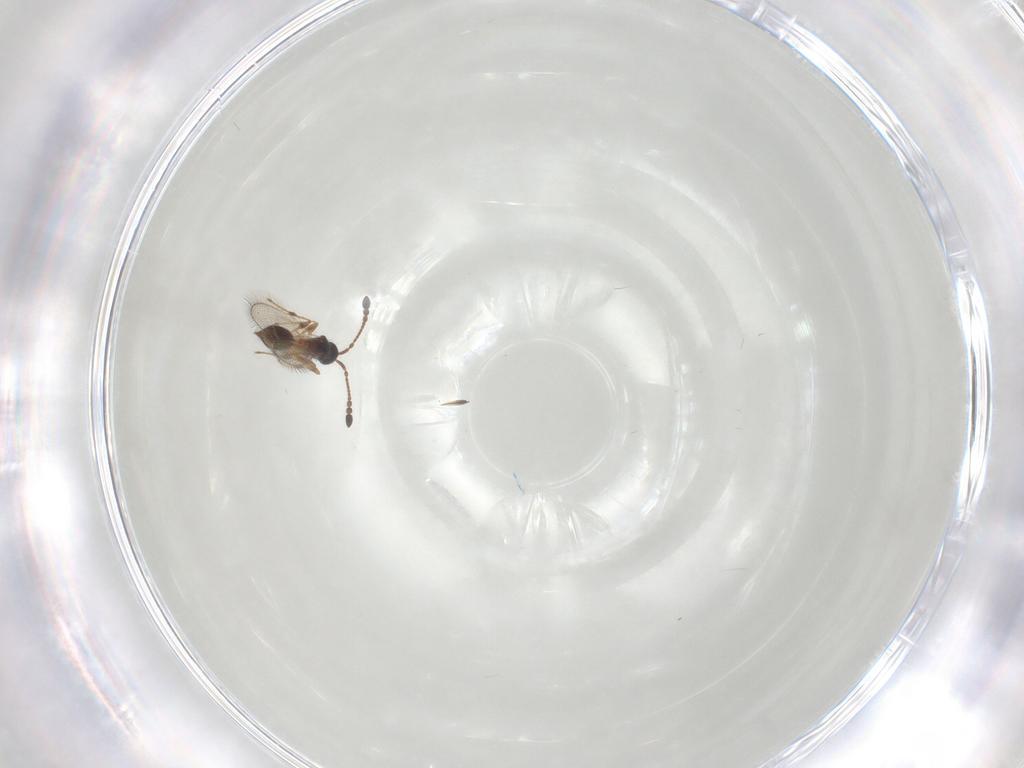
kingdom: Animalia
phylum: Arthropoda
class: Insecta
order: Hymenoptera
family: Diapriidae
